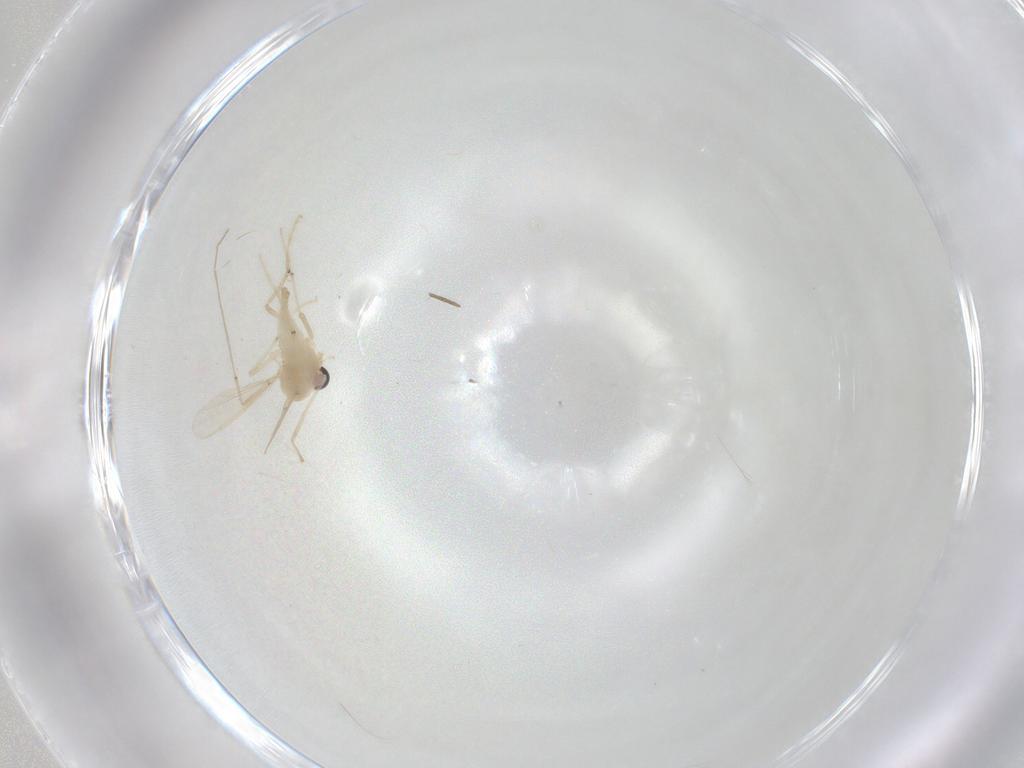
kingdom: Animalia
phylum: Arthropoda
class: Insecta
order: Diptera
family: Chironomidae
